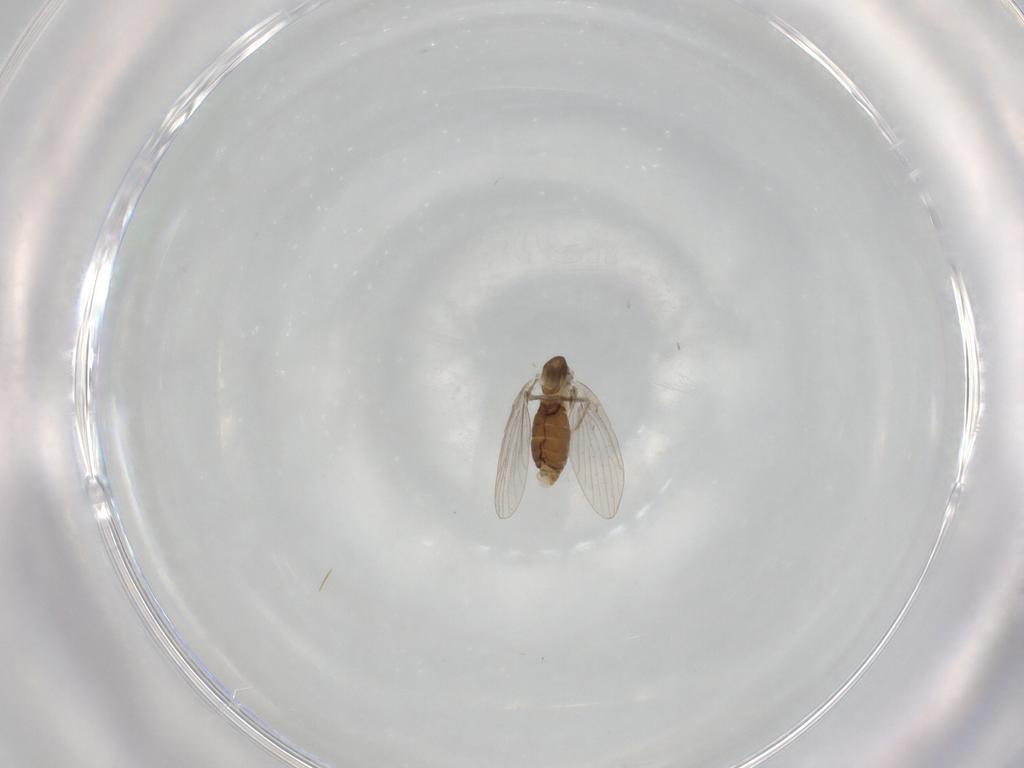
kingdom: Animalia
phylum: Arthropoda
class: Insecta
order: Diptera
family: Psychodidae
